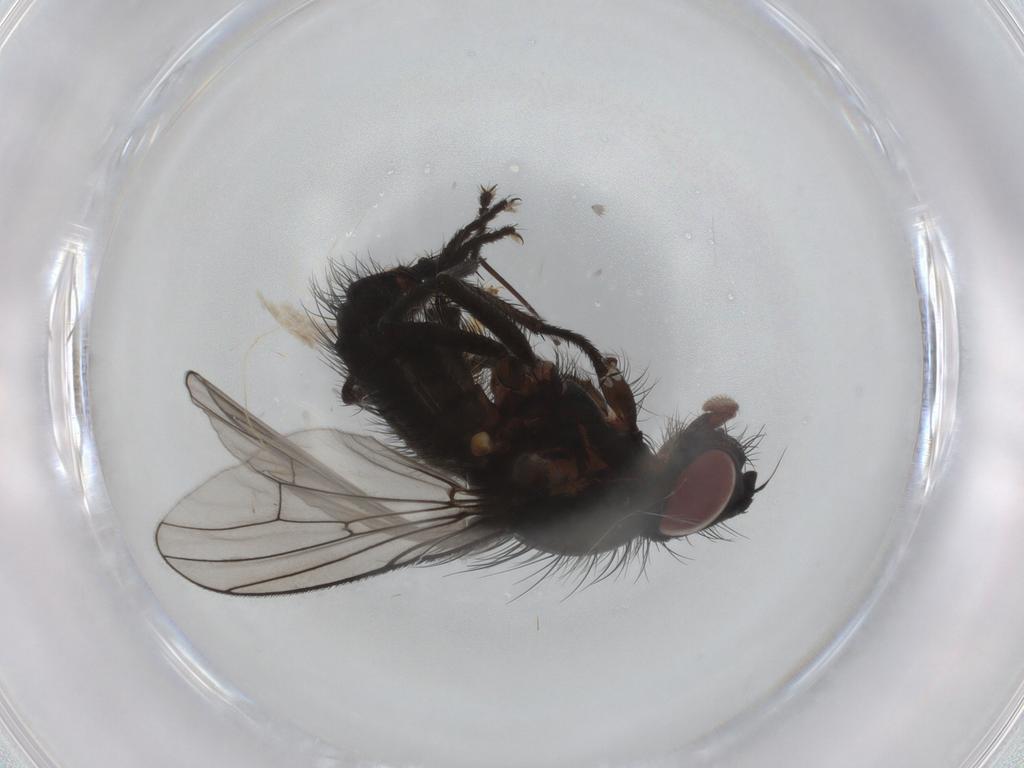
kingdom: Animalia
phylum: Arthropoda
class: Insecta
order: Diptera
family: Anthomyiidae
